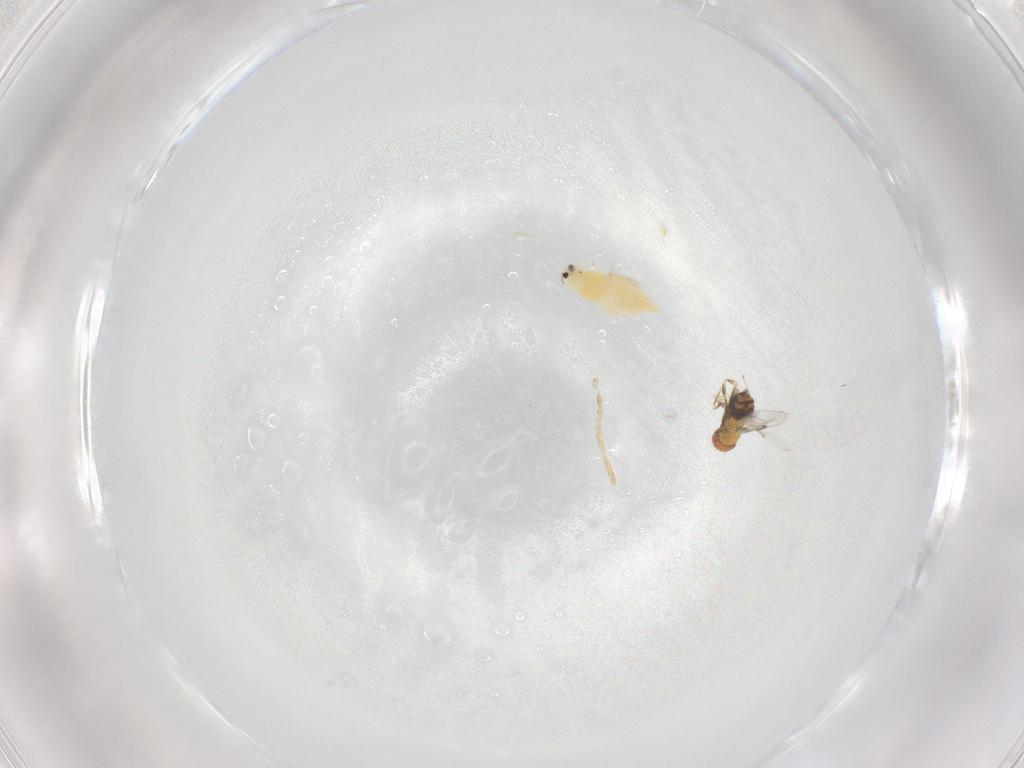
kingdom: Animalia
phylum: Arthropoda
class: Insecta
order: Hymenoptera
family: Trichogrammatidae
